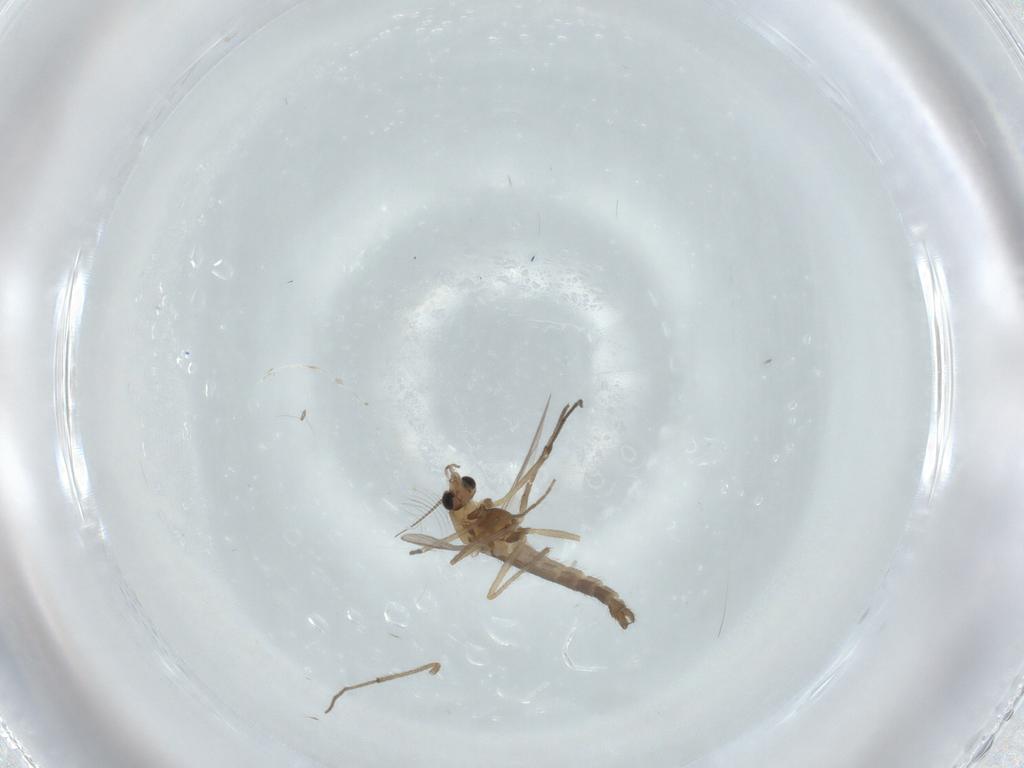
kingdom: Animalia
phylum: Arthropoda
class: Insecta
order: Diptera
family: Chironomidae
